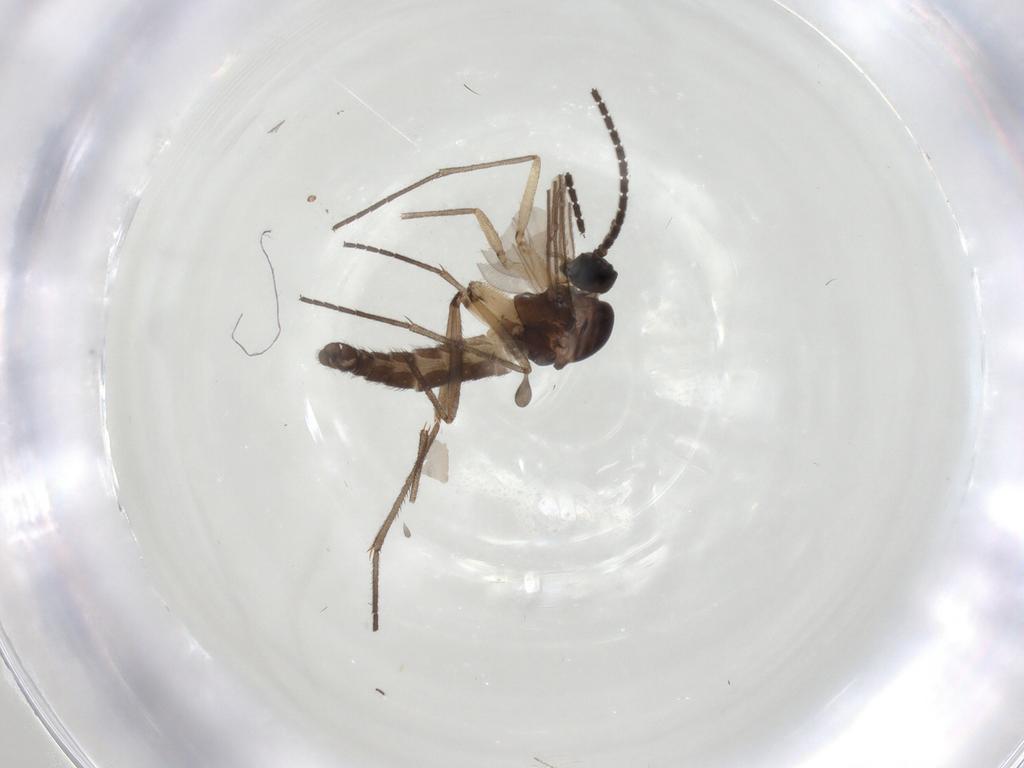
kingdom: Animalia
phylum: Arthropoda
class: Insecta
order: Diptera
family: Sciaridae
